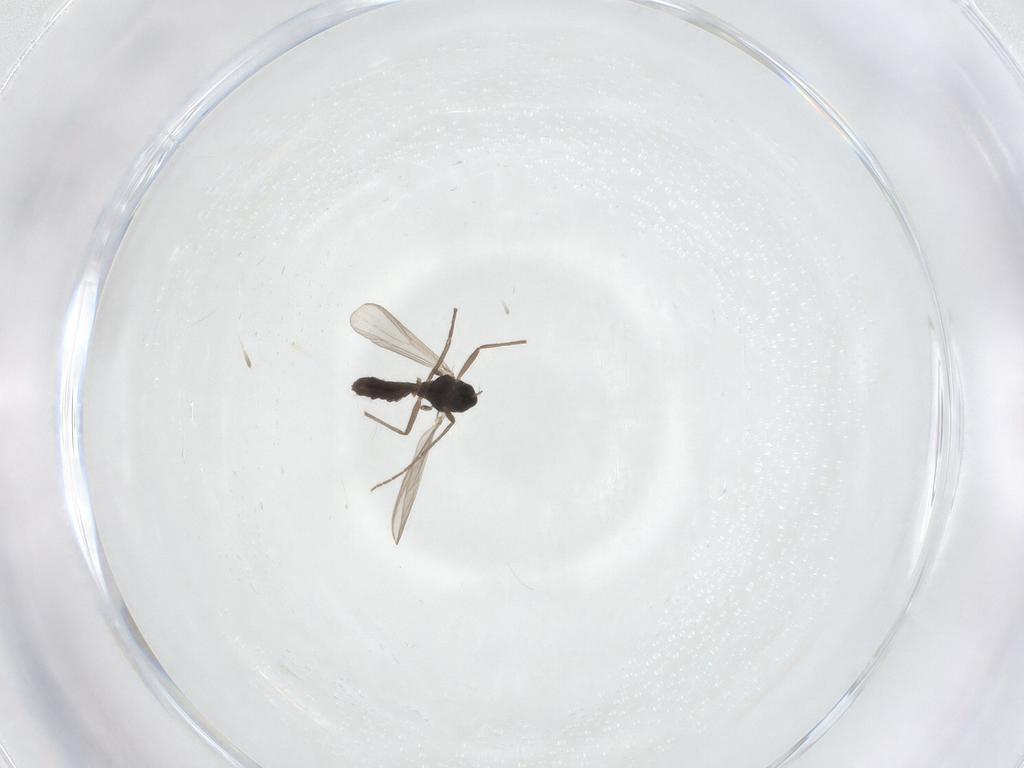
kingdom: Animalia
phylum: Arthropoda
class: Insecta
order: Diptera
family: Chironomidae
